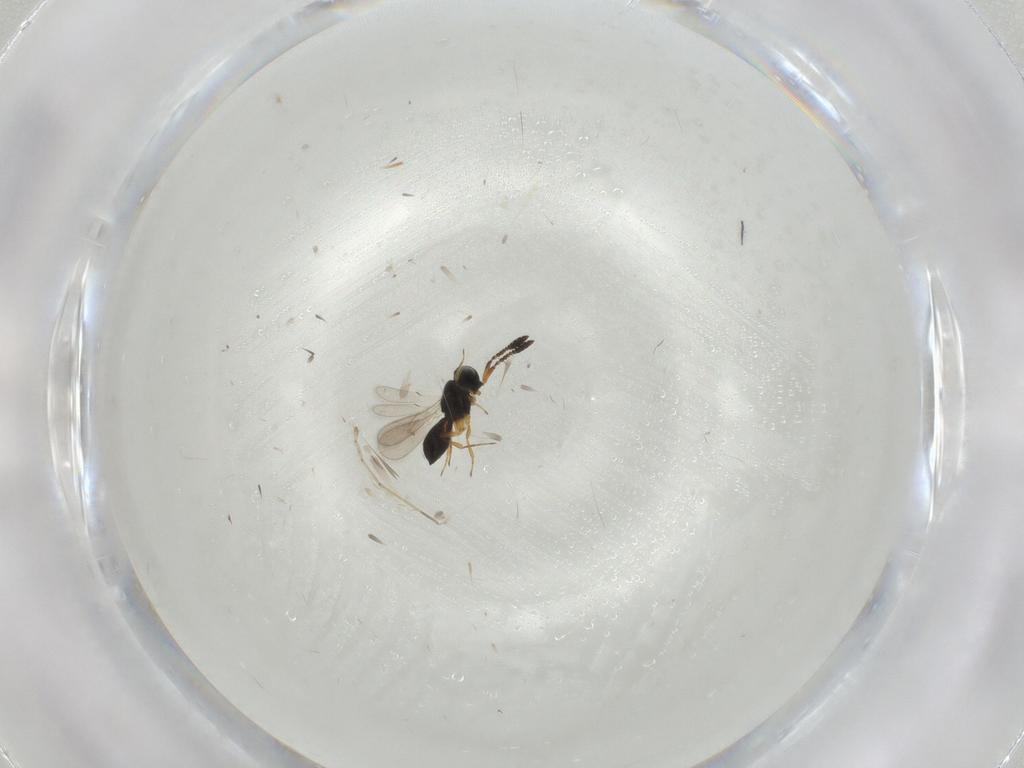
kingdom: Animalia
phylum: Arthropoda
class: Insecta
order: Hymenoptera
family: Scelionidae
